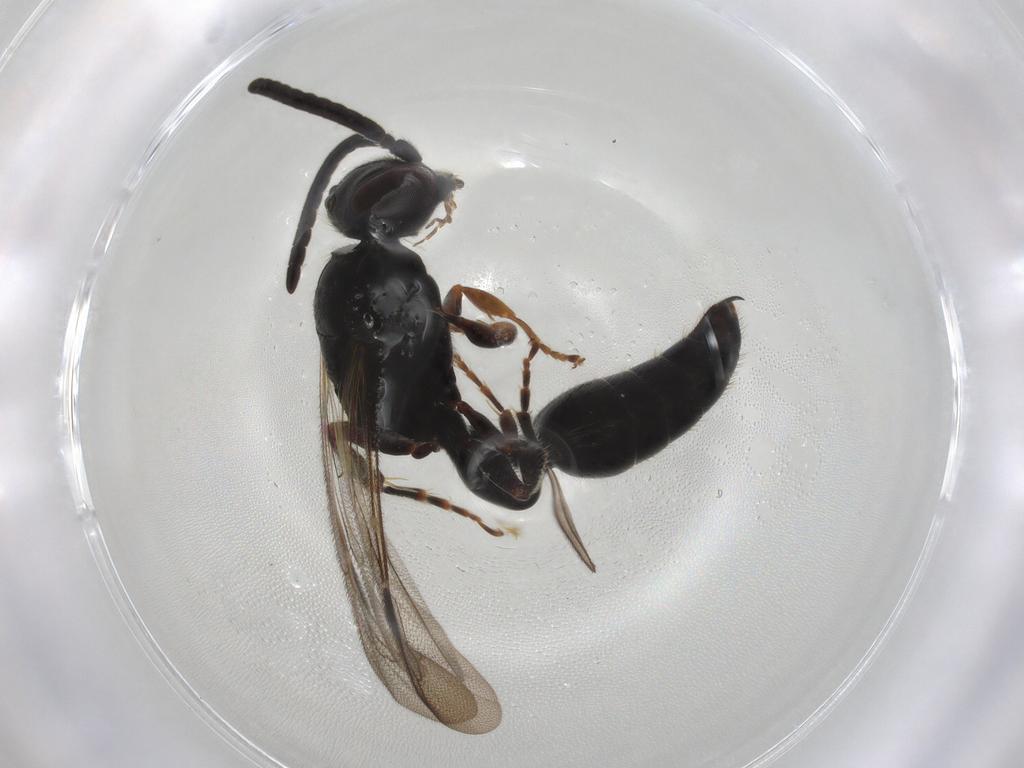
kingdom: Animalia
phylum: Arthropoda
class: Insecta
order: Hymenoptera
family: Tiphiidae
